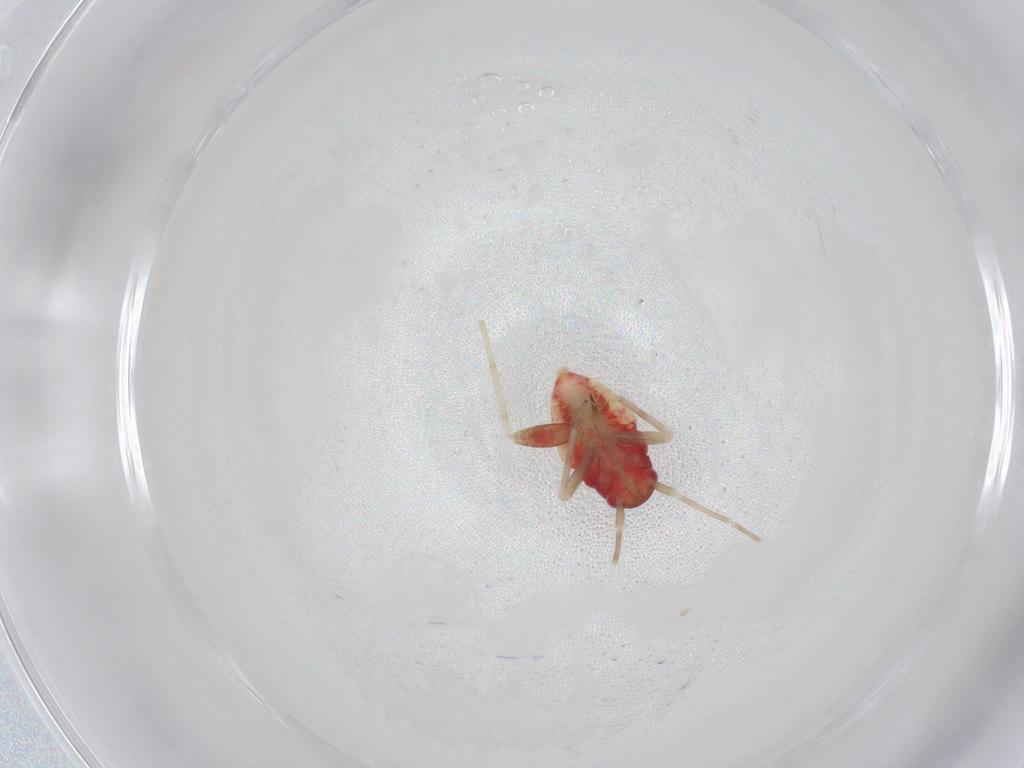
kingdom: Animalia
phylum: Arthropoda
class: Insecta
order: Hemiptera
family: Miridae
